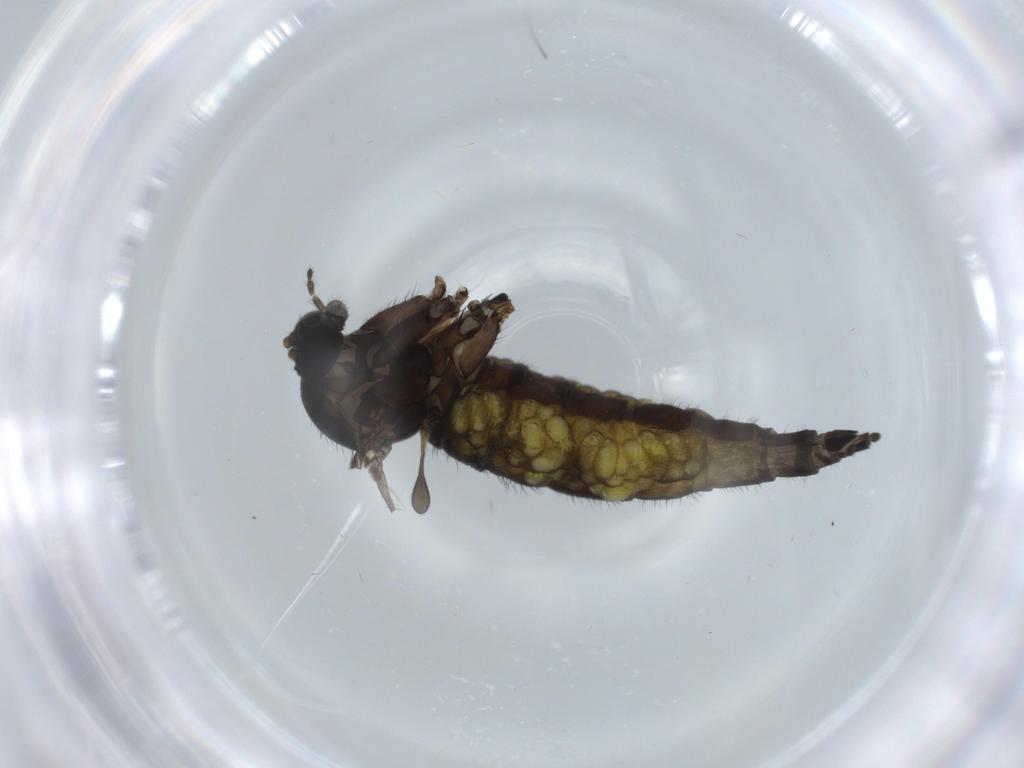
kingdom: Animalia
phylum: Arthropoda
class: Insecta
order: Diptera
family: Sciaridae
